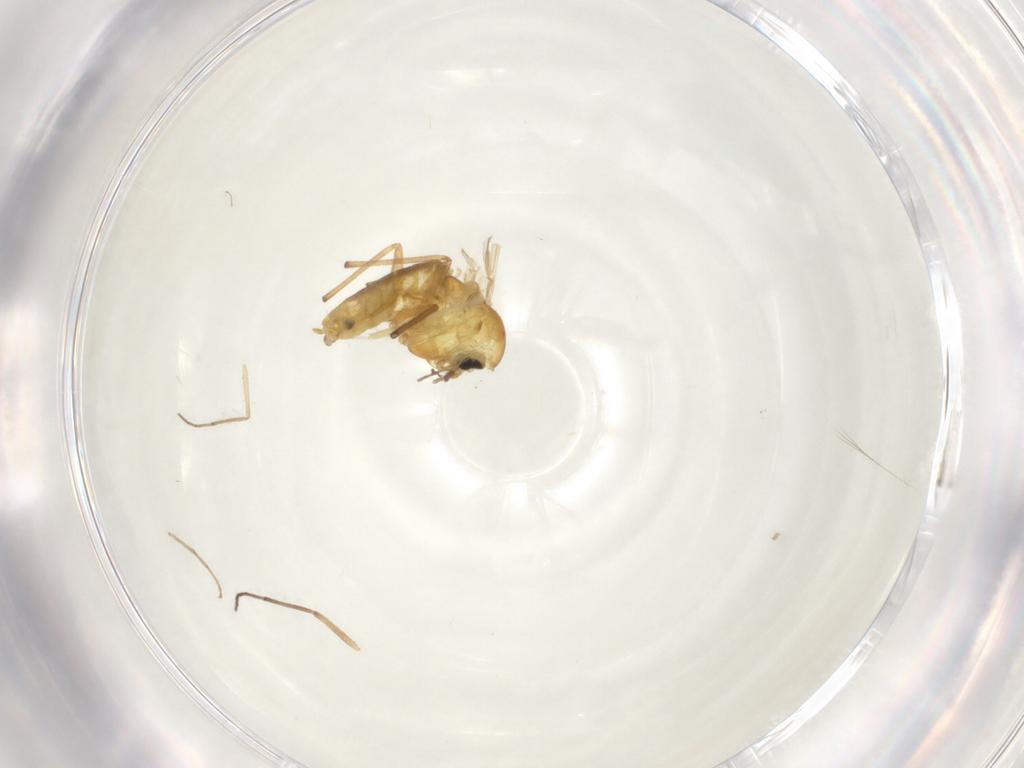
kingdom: Animalia
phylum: Arthropoda
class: Insecta
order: Diptera
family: Chironomidae
